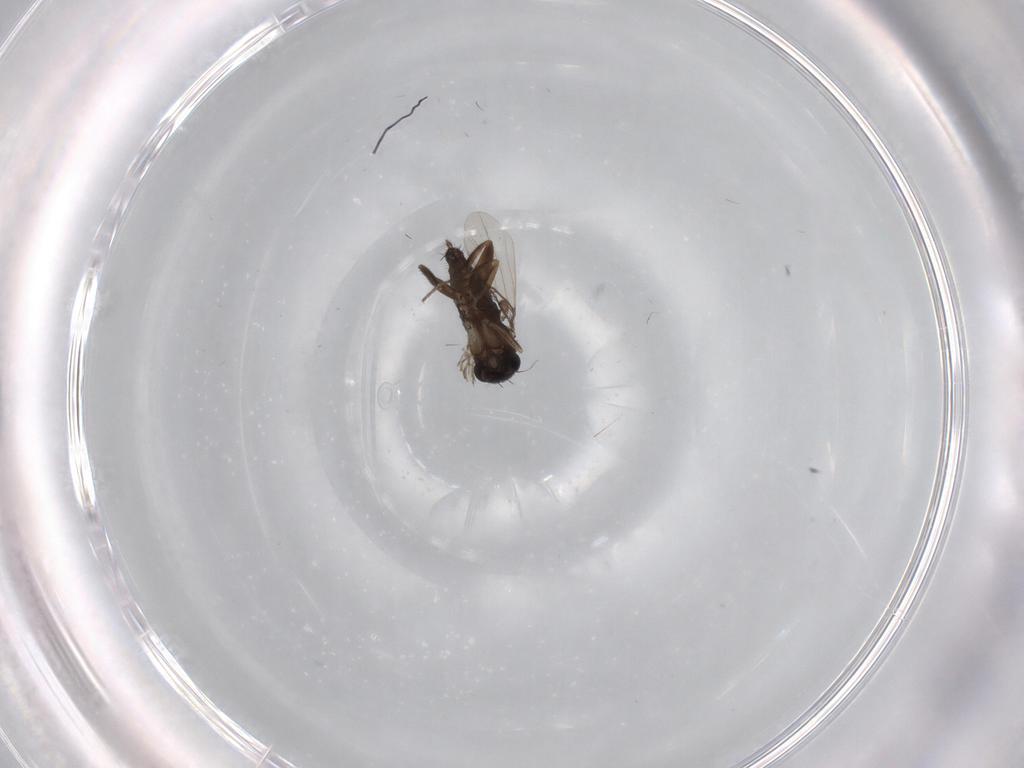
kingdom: Animalia
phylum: Arthropoda
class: Insecta
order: Diptera
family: Phoridae
